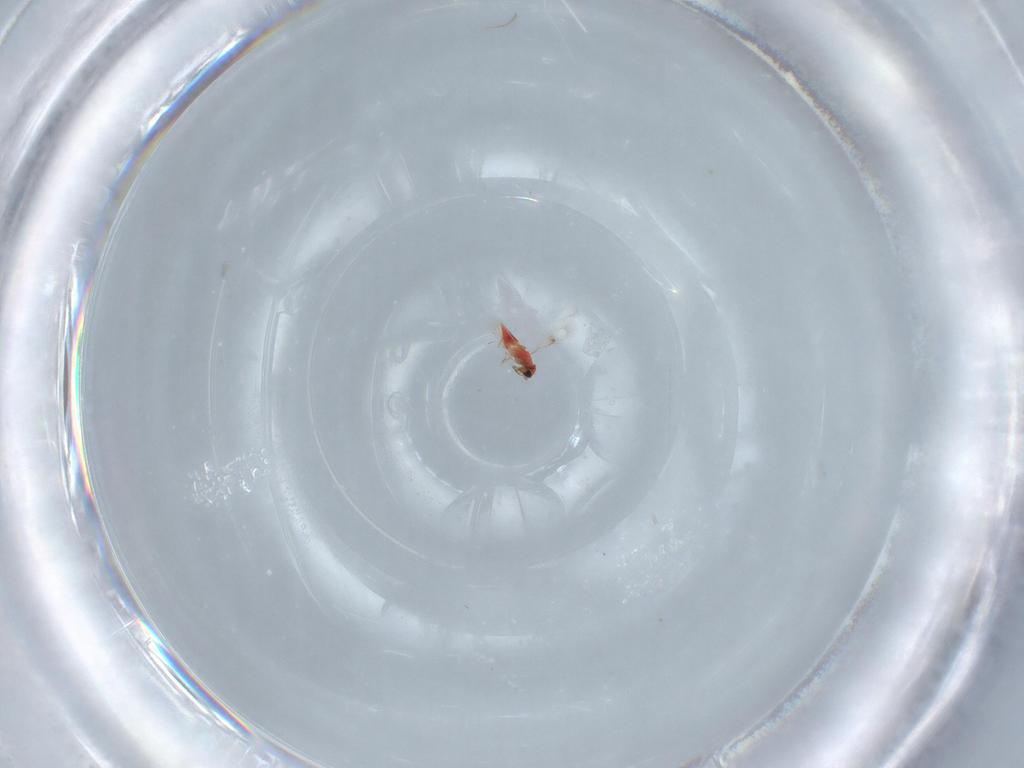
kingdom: Animalia
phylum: Arthropoda
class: Insecta
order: Hymenoptera
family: Trichogrammatidae
